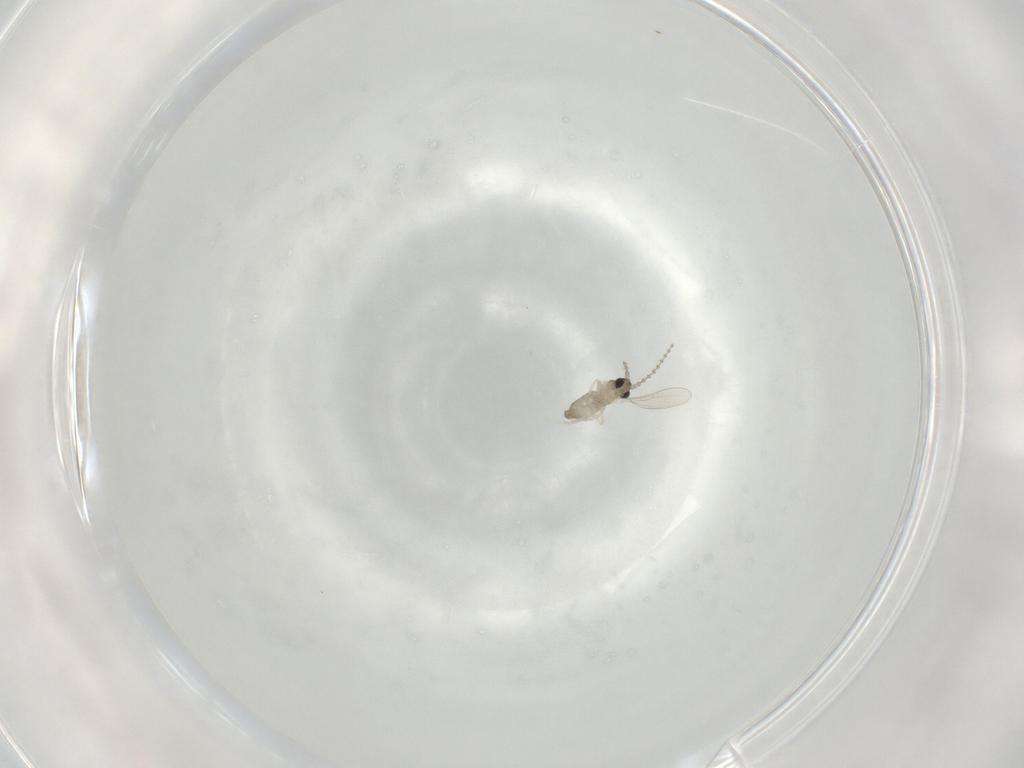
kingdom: Animalia
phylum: Arthropoda
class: Insecta
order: Diptera
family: Cecidomyiidae
